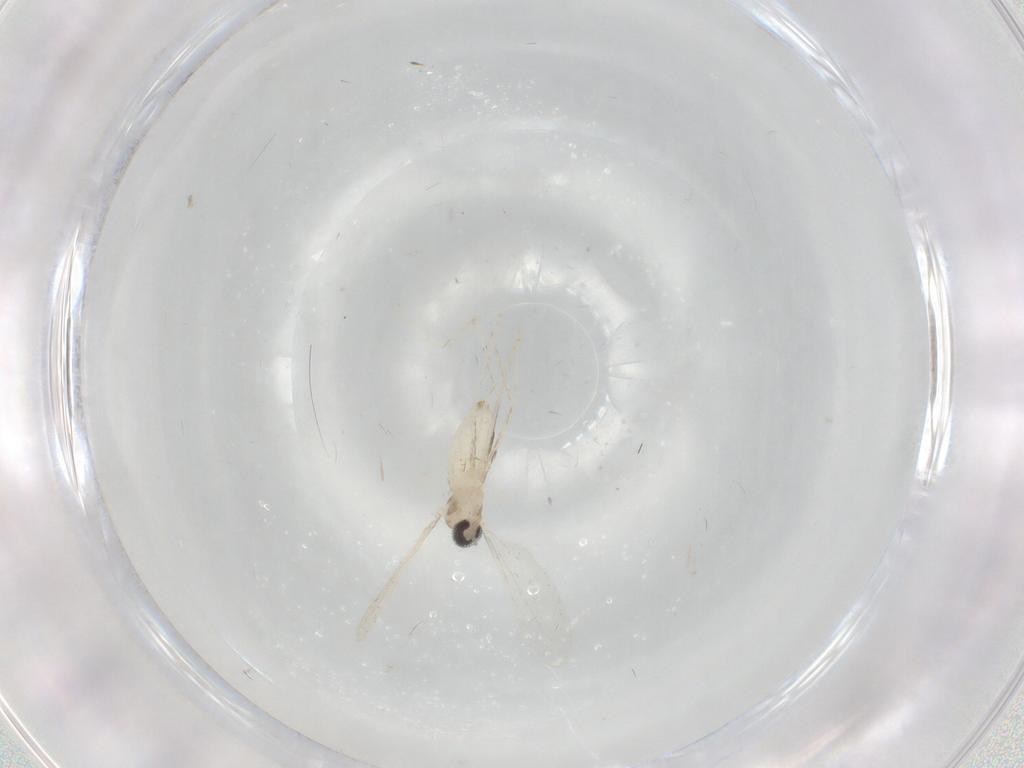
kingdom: Animalia
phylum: Arthropoda
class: Insecta
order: Diptera
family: Cecidomyiidae
